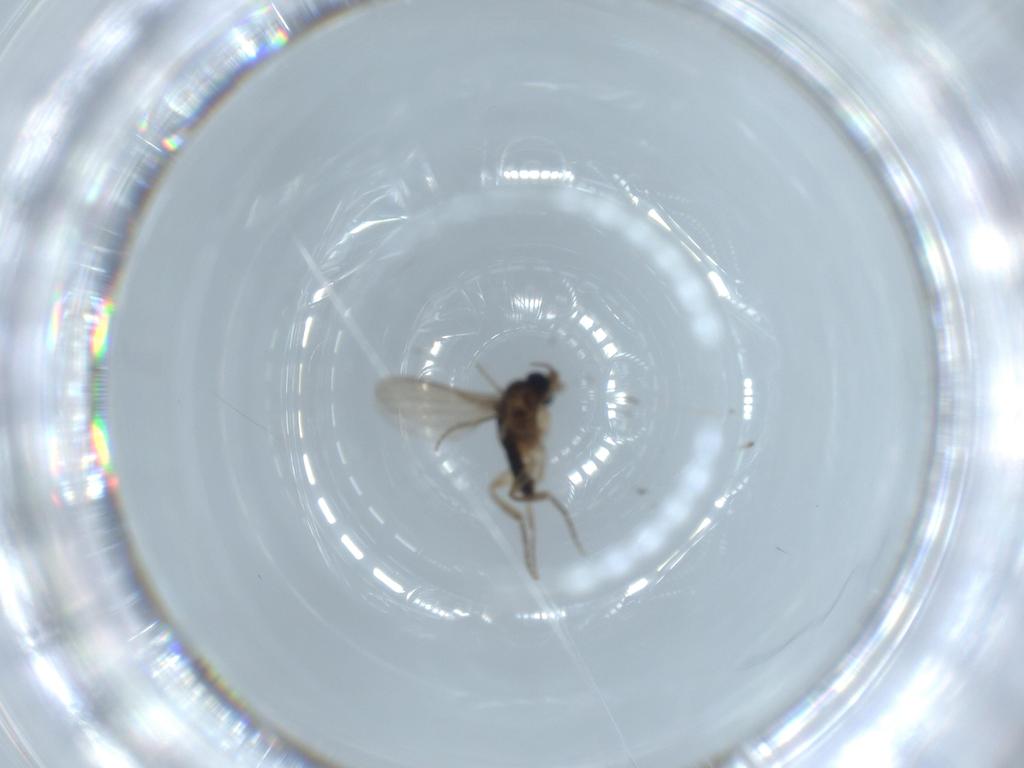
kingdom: Animalia
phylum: Arthropoda
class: Insecta
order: Diptera
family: Phoridae
